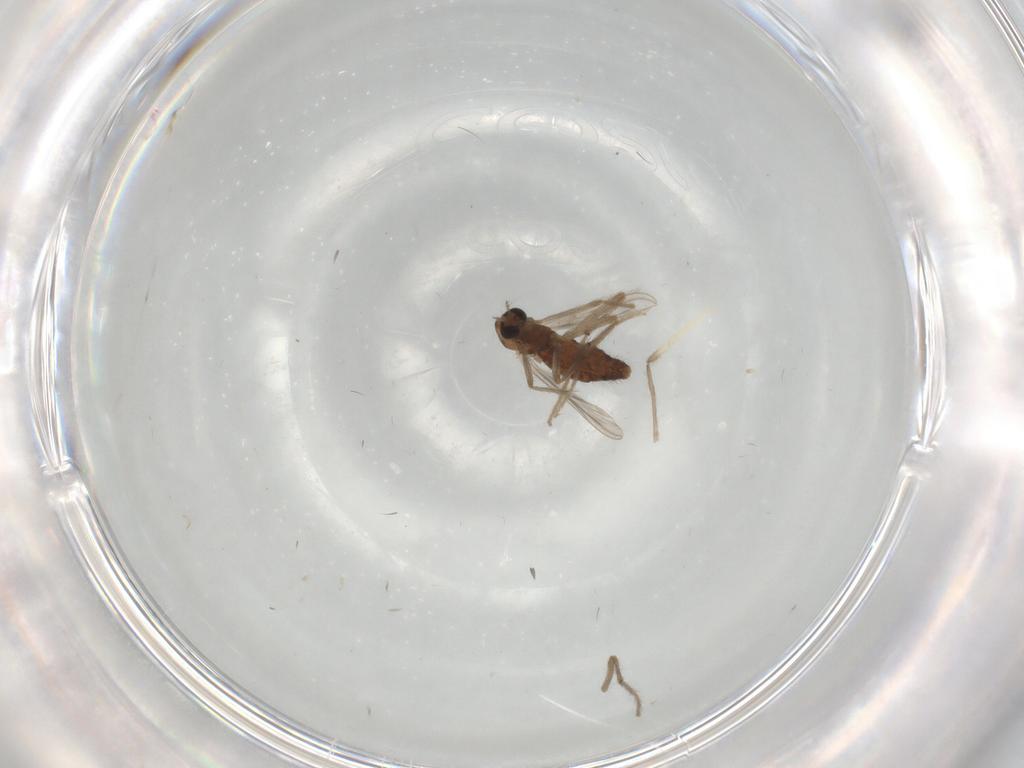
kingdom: Animalia
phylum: Arthropoda
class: Insecta
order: Diptera
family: Chironomidae
